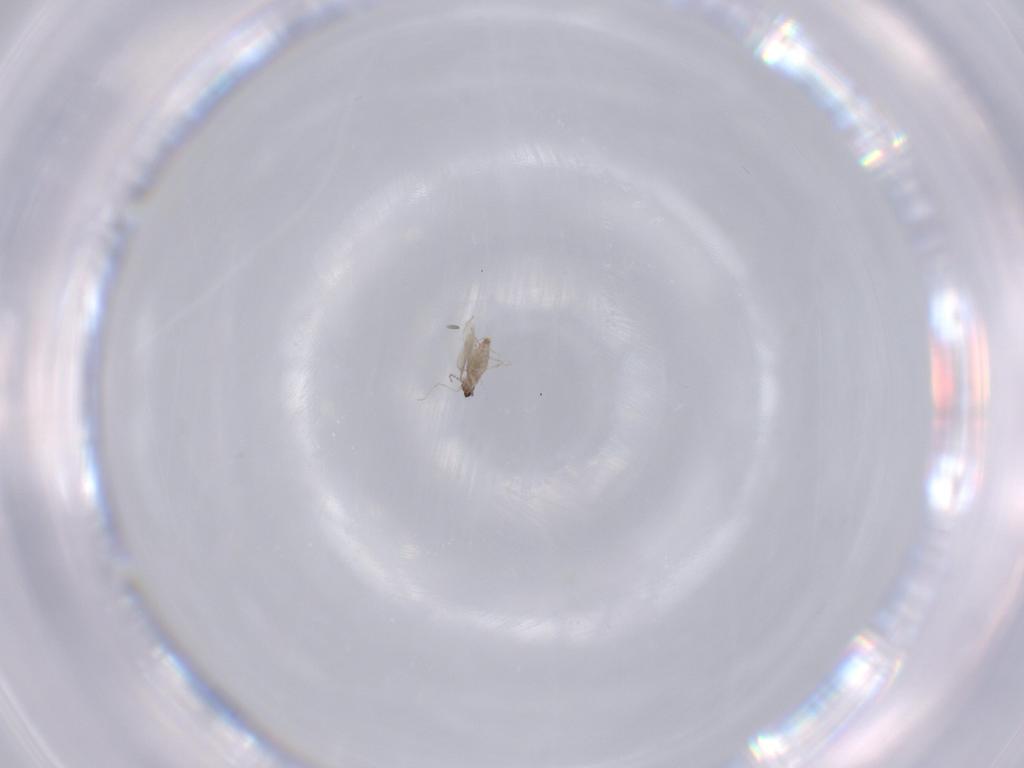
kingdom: Animalia
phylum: Arthropoda
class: Insecta
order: Diptera
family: Cecidomyiidae
